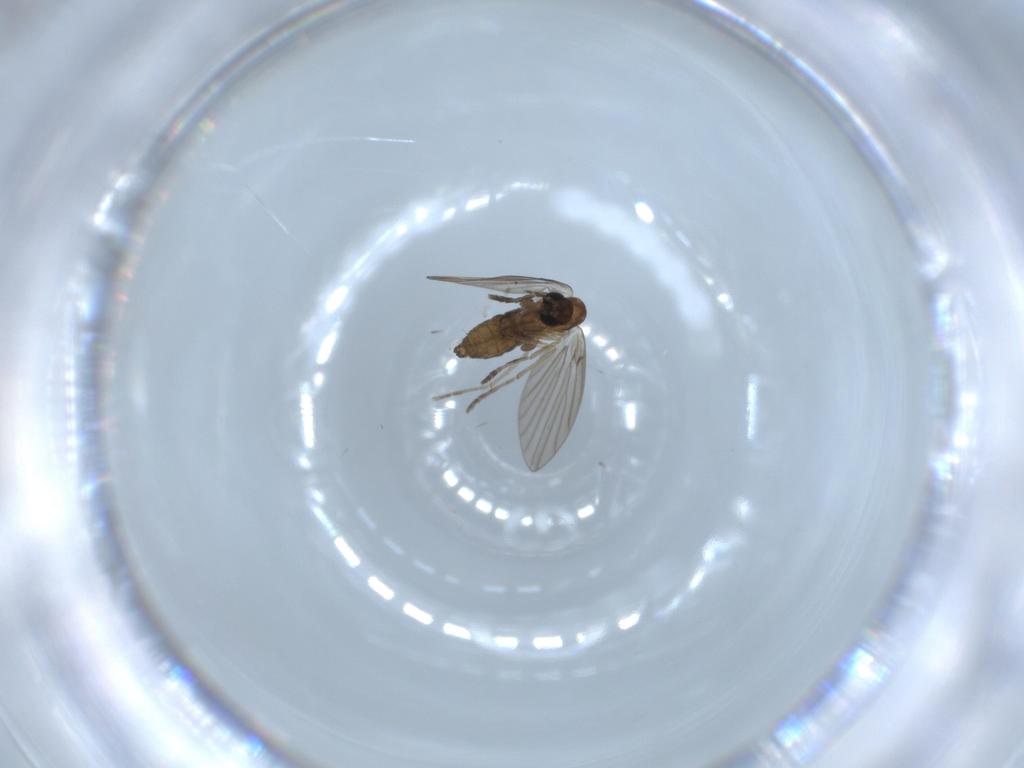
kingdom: Animalia
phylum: Arthropoda
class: Insecta
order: Diptera
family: Psychodidae
